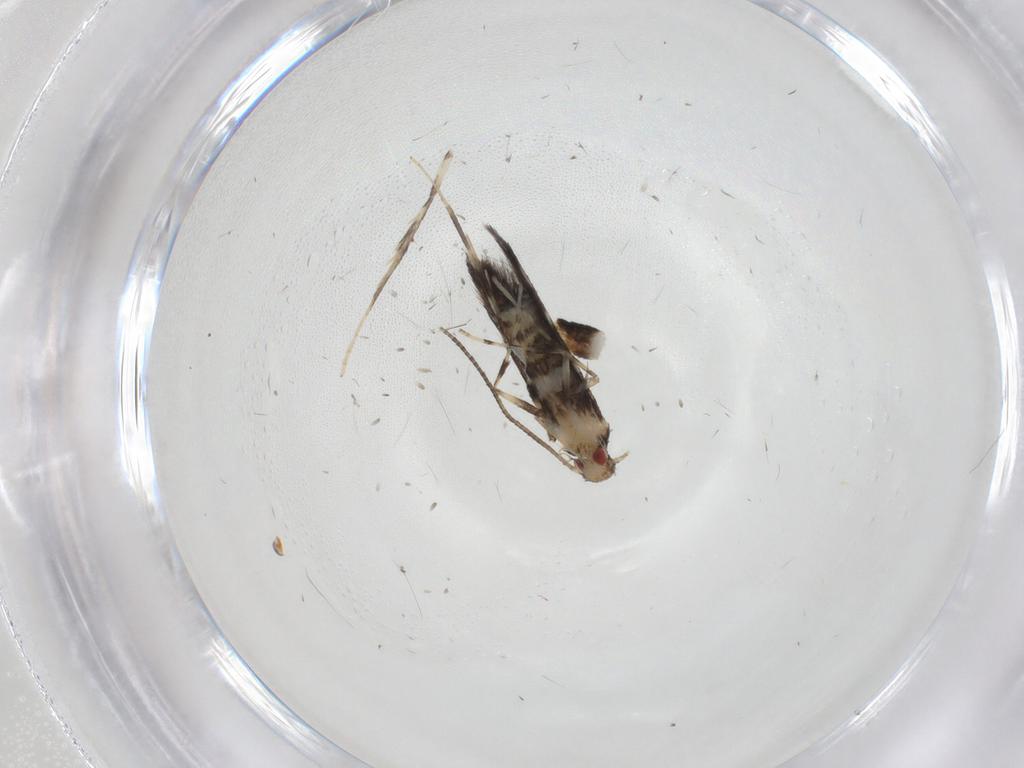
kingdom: Animalia
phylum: Arthropoda
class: Insecta
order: Lepidoptera
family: Gracillariidae
